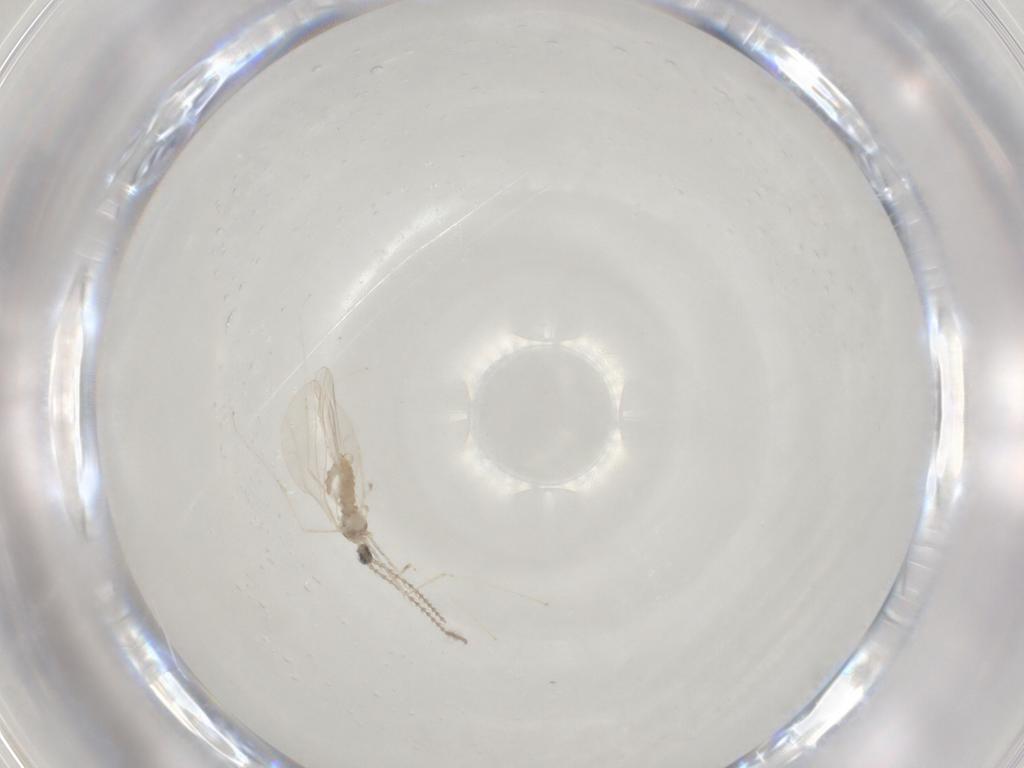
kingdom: Animalia
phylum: Arthropoda
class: Insecta
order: Diptera
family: Cecidomyiidae
